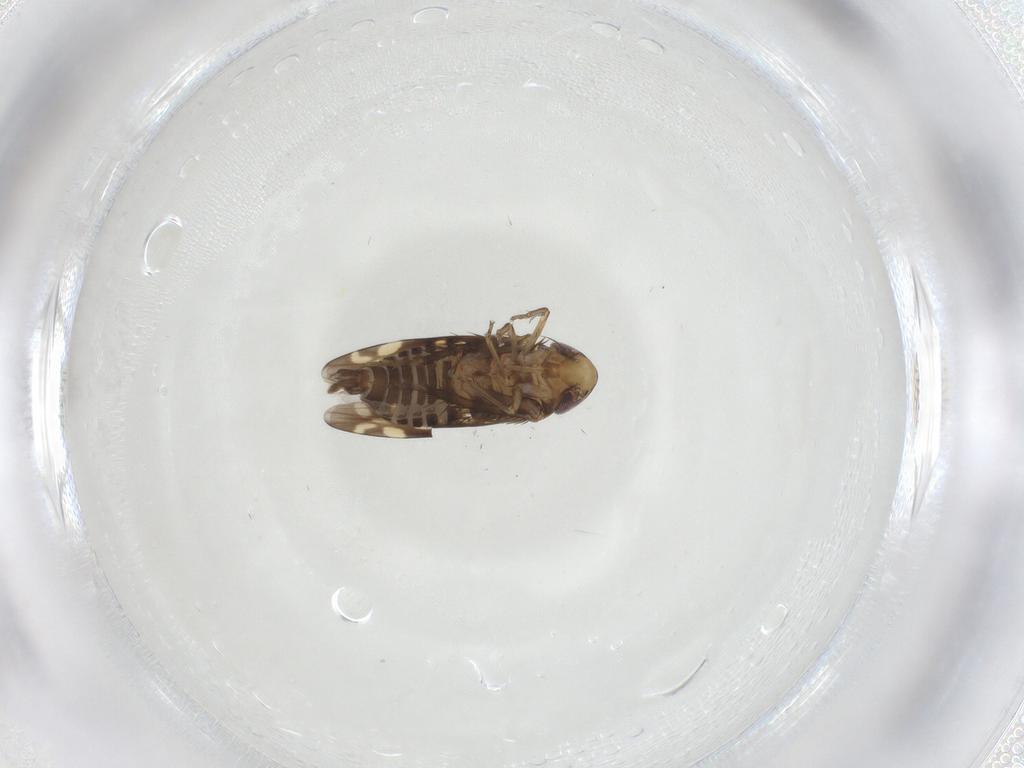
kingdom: Animalia
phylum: Arthropoda
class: Insecta
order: Hemiptera
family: Cicadellidae
